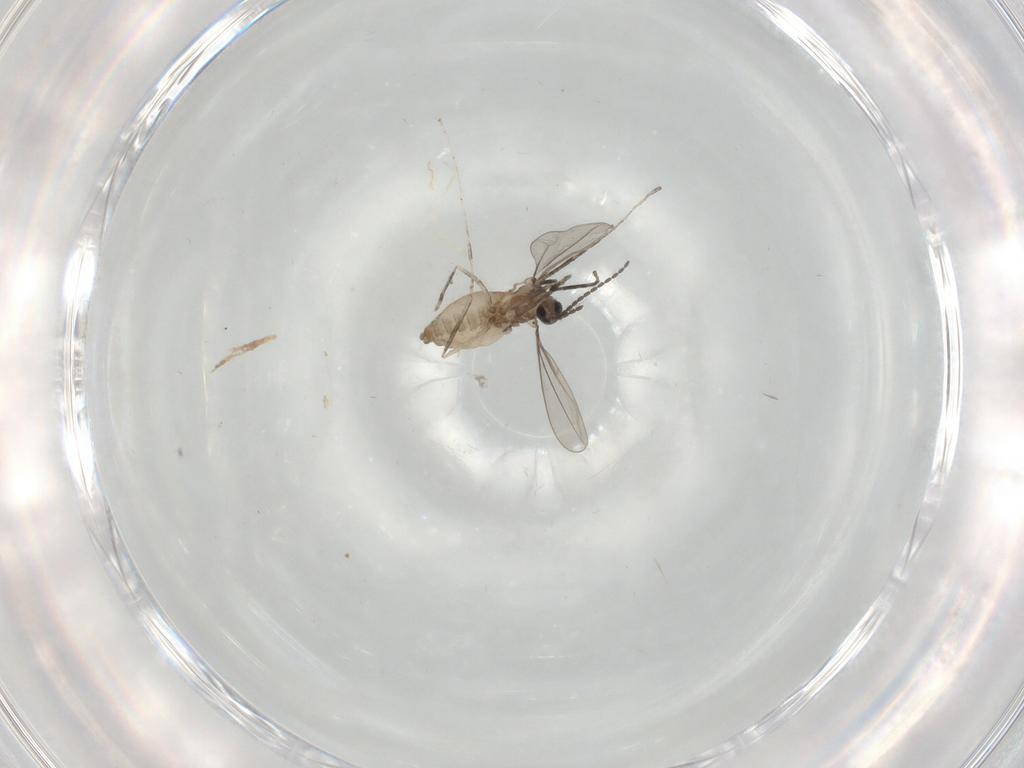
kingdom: Animalia
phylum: Arthropoda
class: Insecta
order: Diptera
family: Cecidomyiidae
